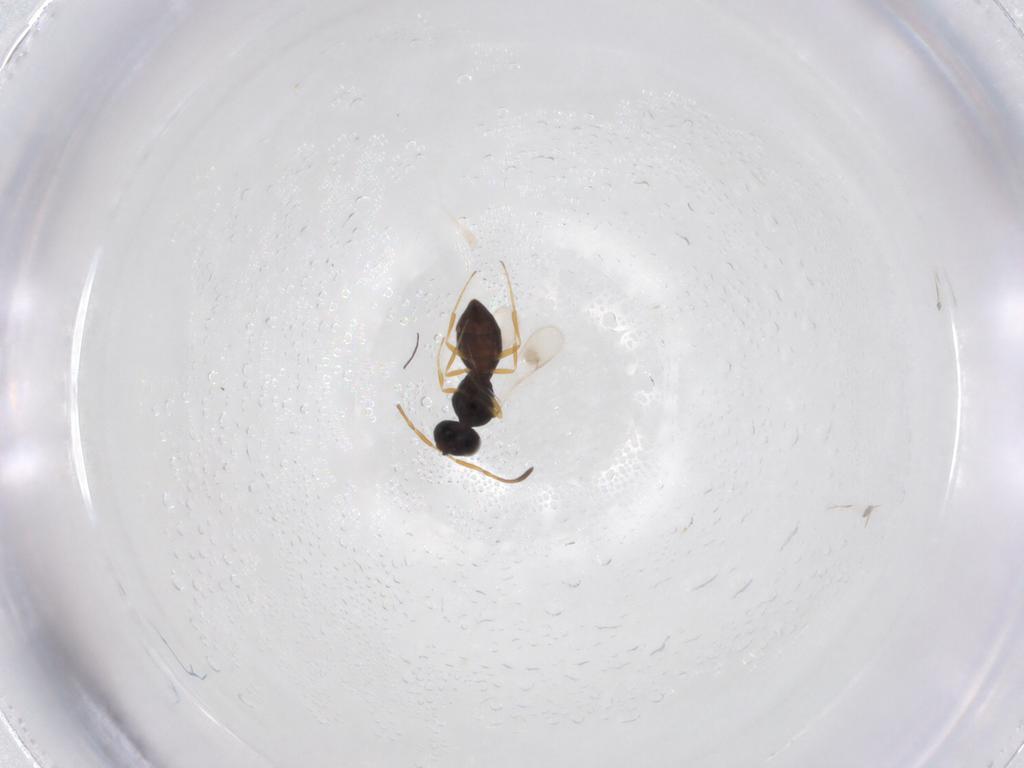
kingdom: Animalia
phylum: Arthropoda
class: Insecta
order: Hymenoptera
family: Scelionidae
